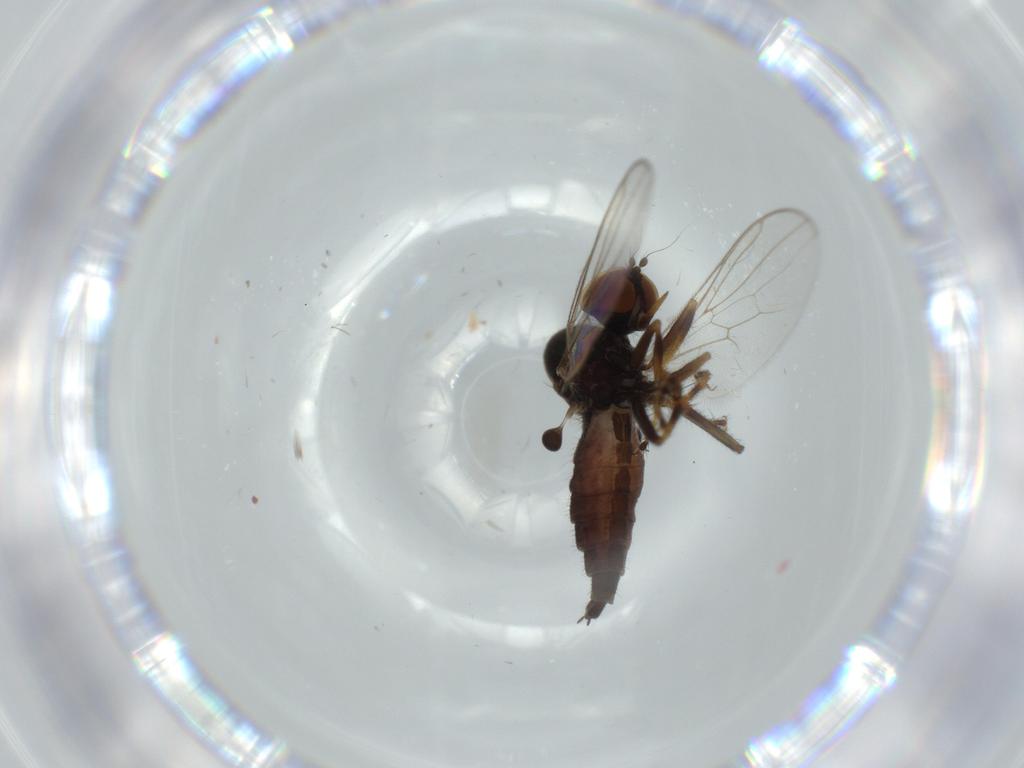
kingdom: Animalia
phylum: Arthropoda
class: Insecta
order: Diptera
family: Hybotidae
